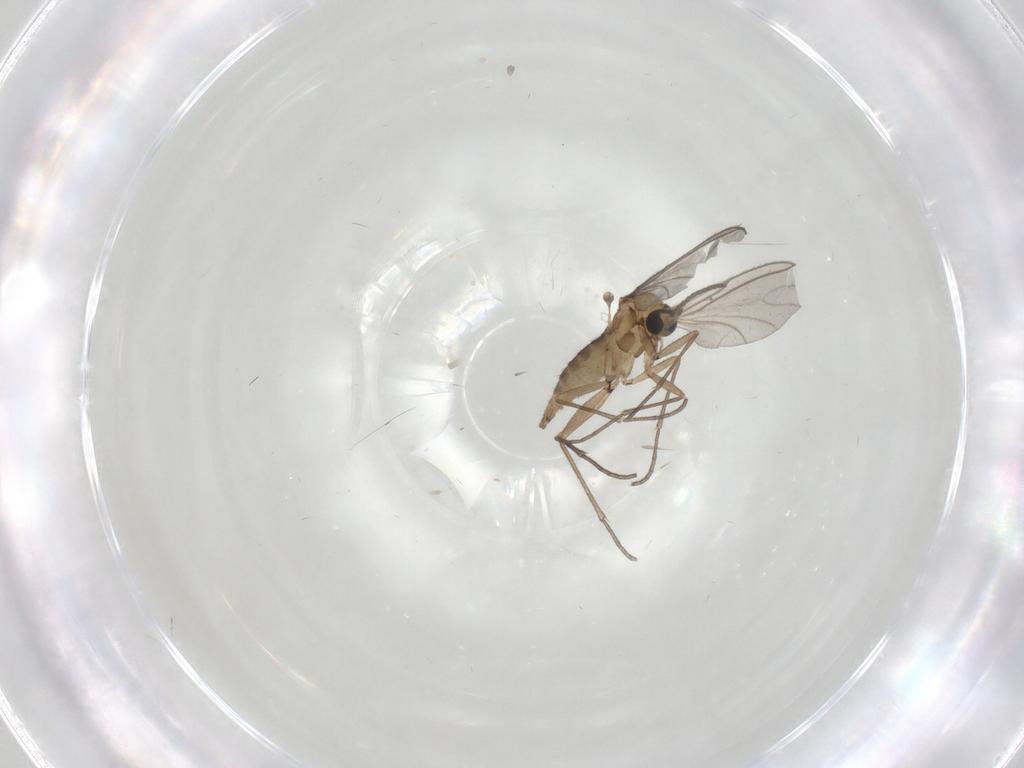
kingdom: Animalia
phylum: Arthropoda
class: Insecta
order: Diptera
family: Sciaridae
